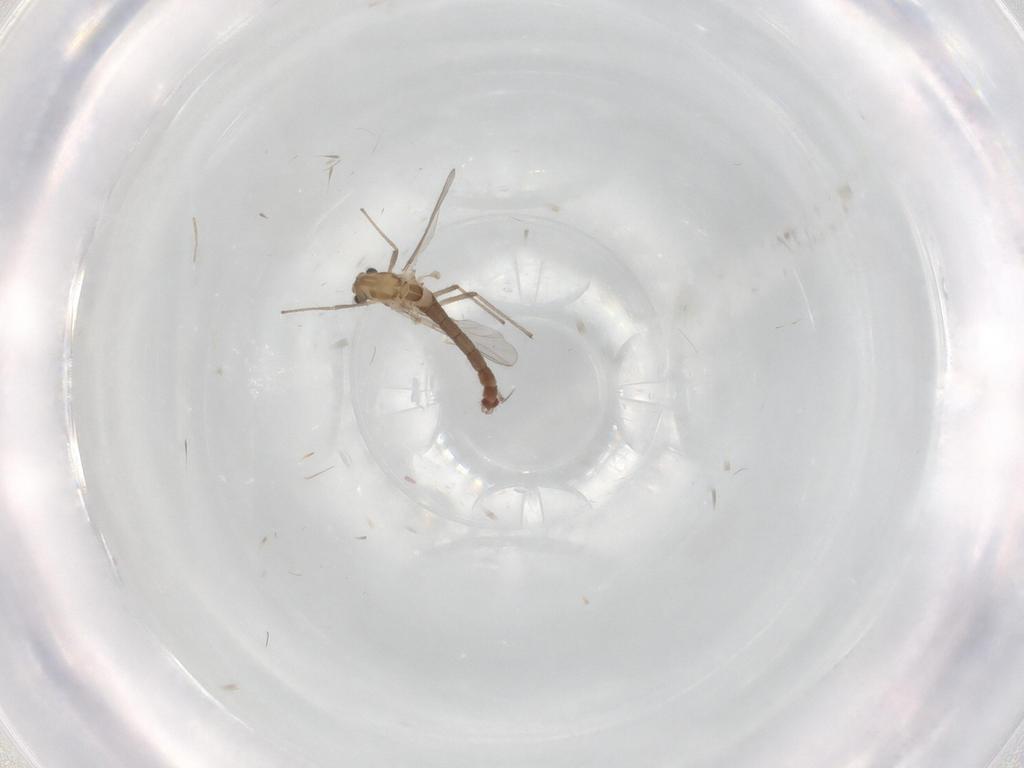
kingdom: Animalia
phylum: Arthropoda
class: Insecta
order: Diptera
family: Chironomidae
